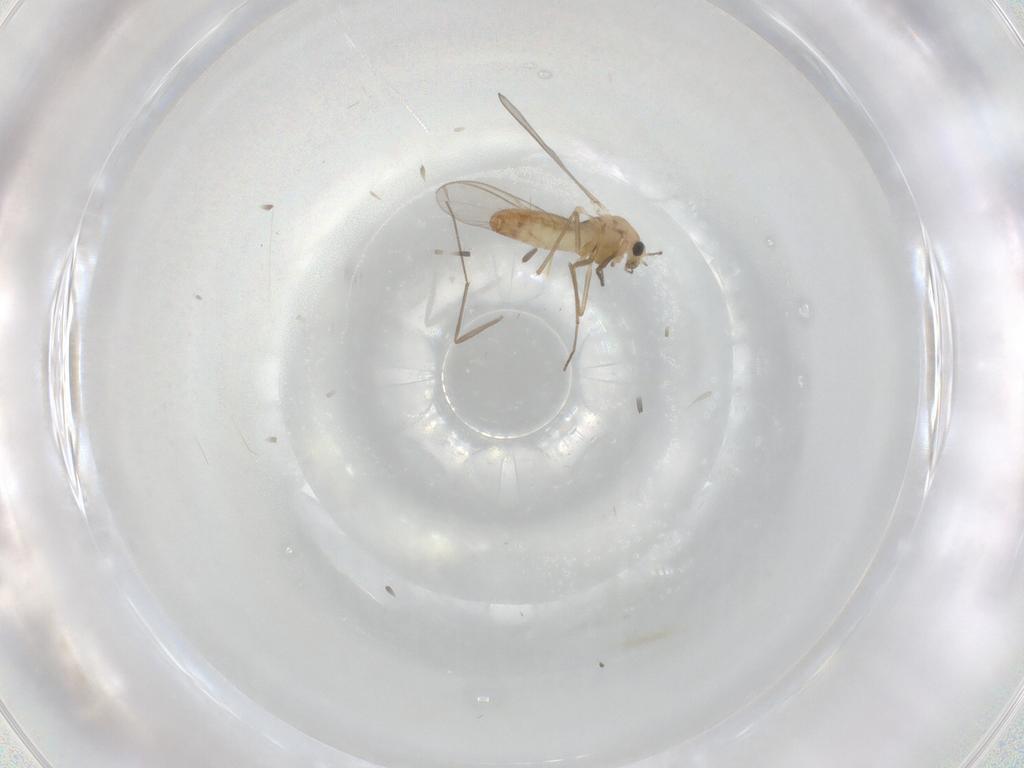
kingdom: Animalia
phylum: Arthropoda
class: Insecta
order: Diptera
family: Chironomidae
